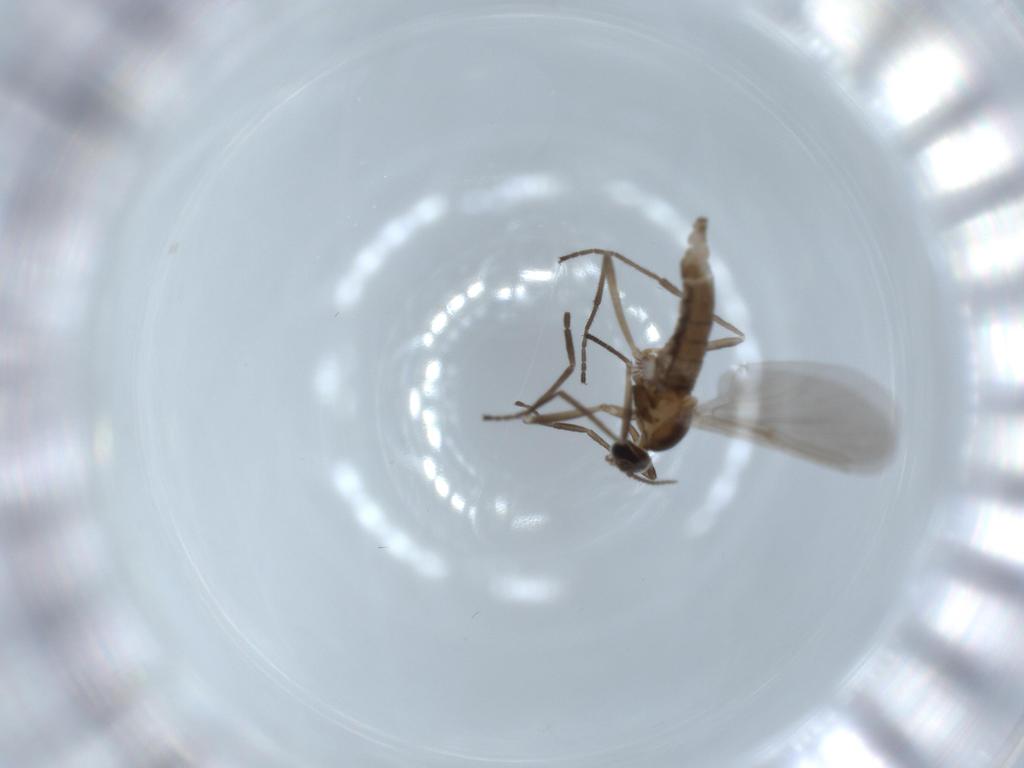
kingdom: Animalia
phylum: Arthropoda
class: Insecta
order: Diptera
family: Cecidomyiidae
